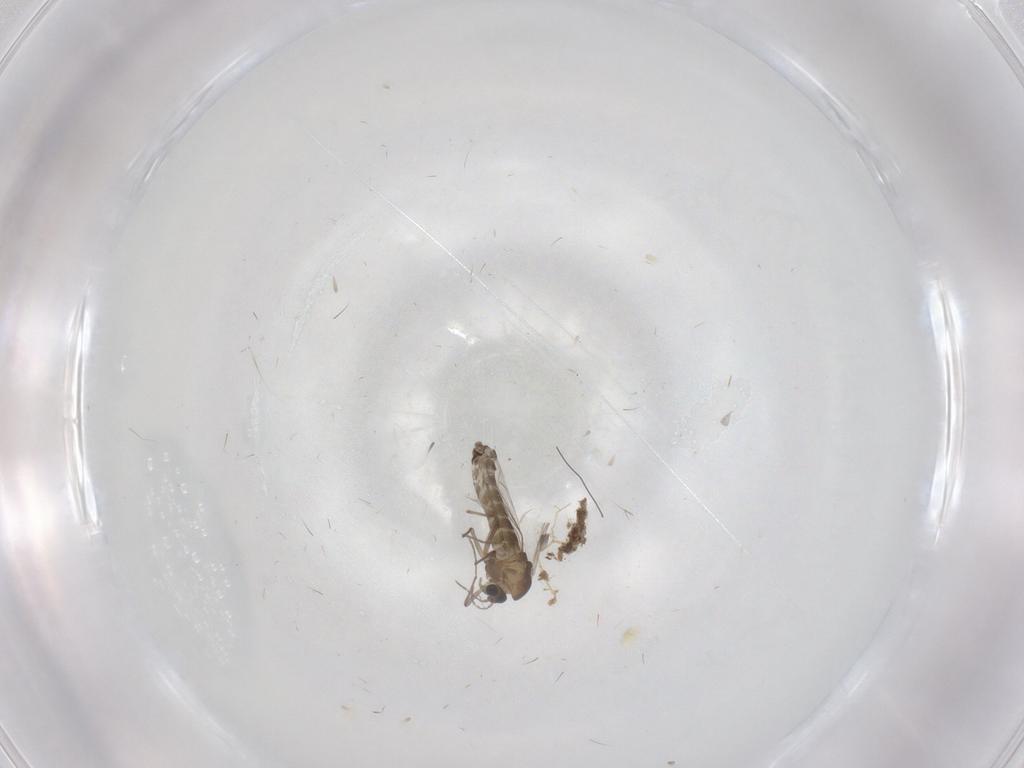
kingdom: Animalia
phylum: Arthropoda
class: Insecta
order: Diptera
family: Chironomidae
